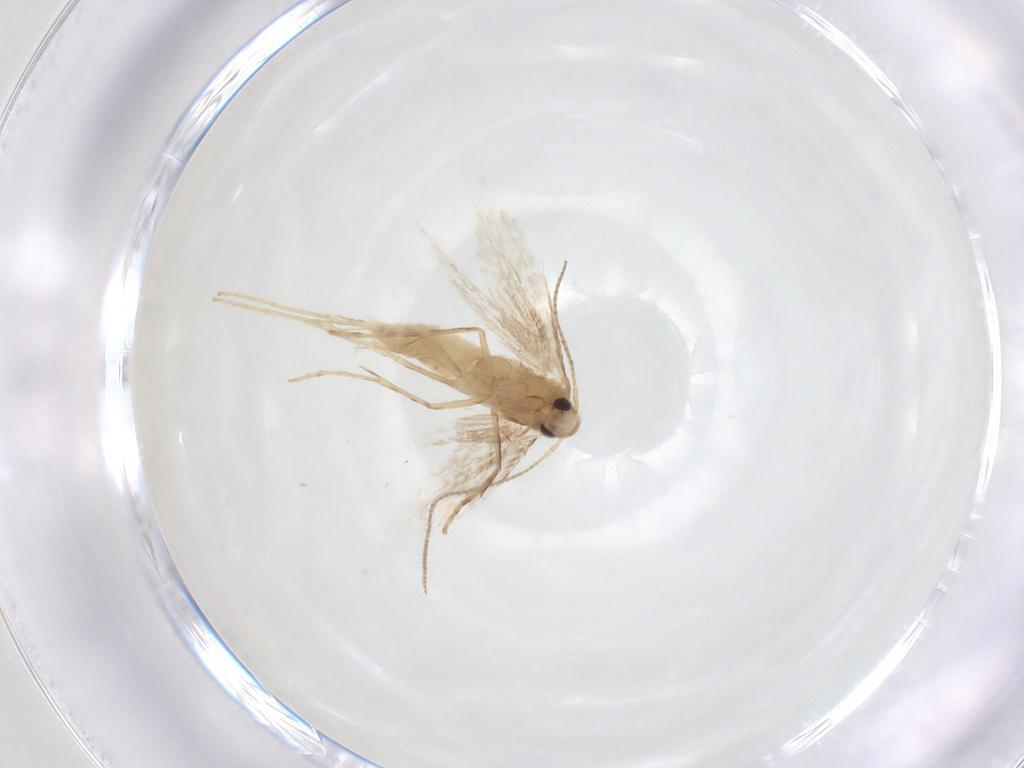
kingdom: Animalia
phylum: Arthropoda
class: Insecta
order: Lepidoptera
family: Gracillariidae
